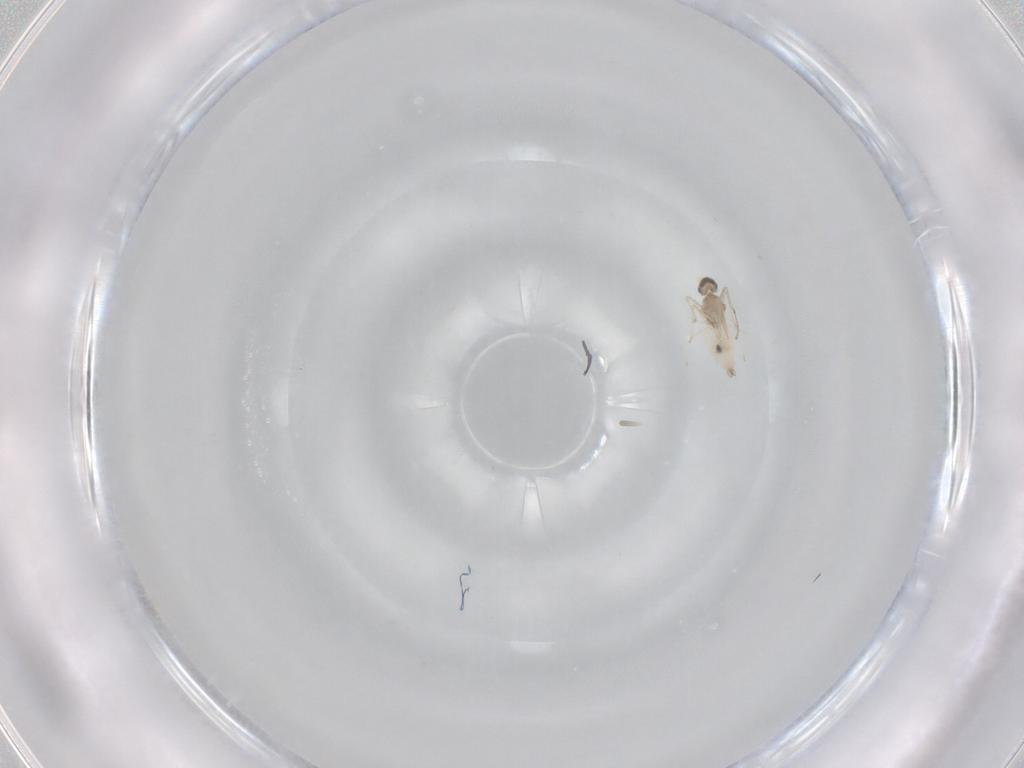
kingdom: Animalia
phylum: Arthropoda
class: Insecta
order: Diptera
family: Cecidomyiidae
